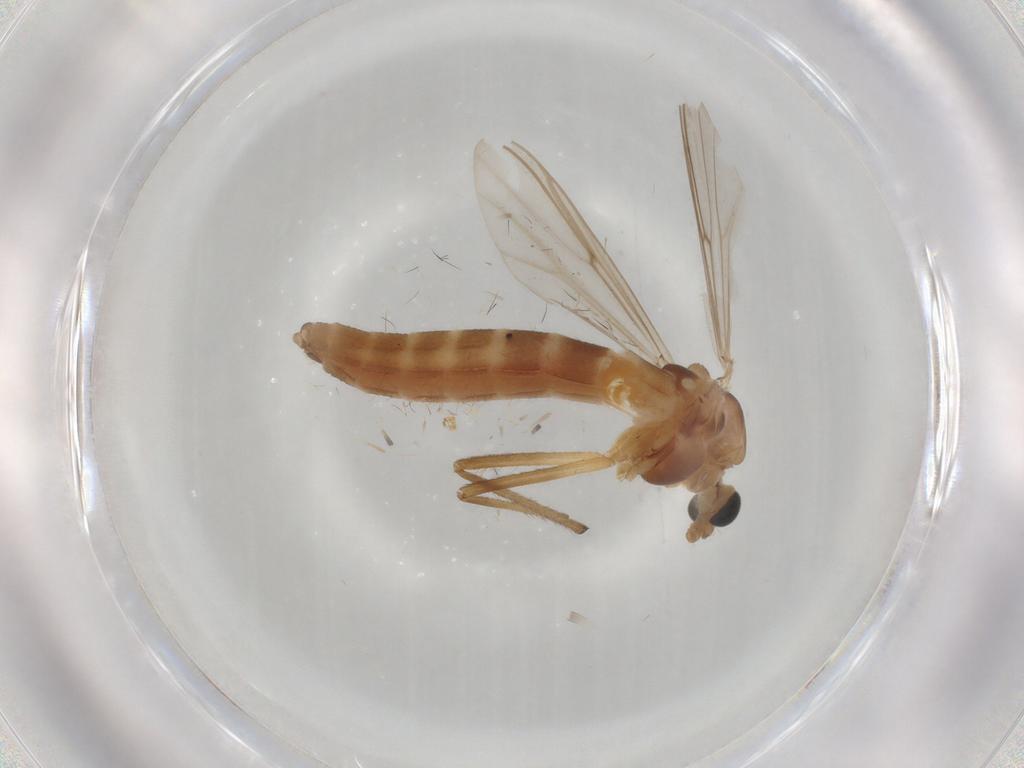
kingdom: Animalia
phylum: Arthropoda
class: Insecta
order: Diptera
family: Chironomidae
